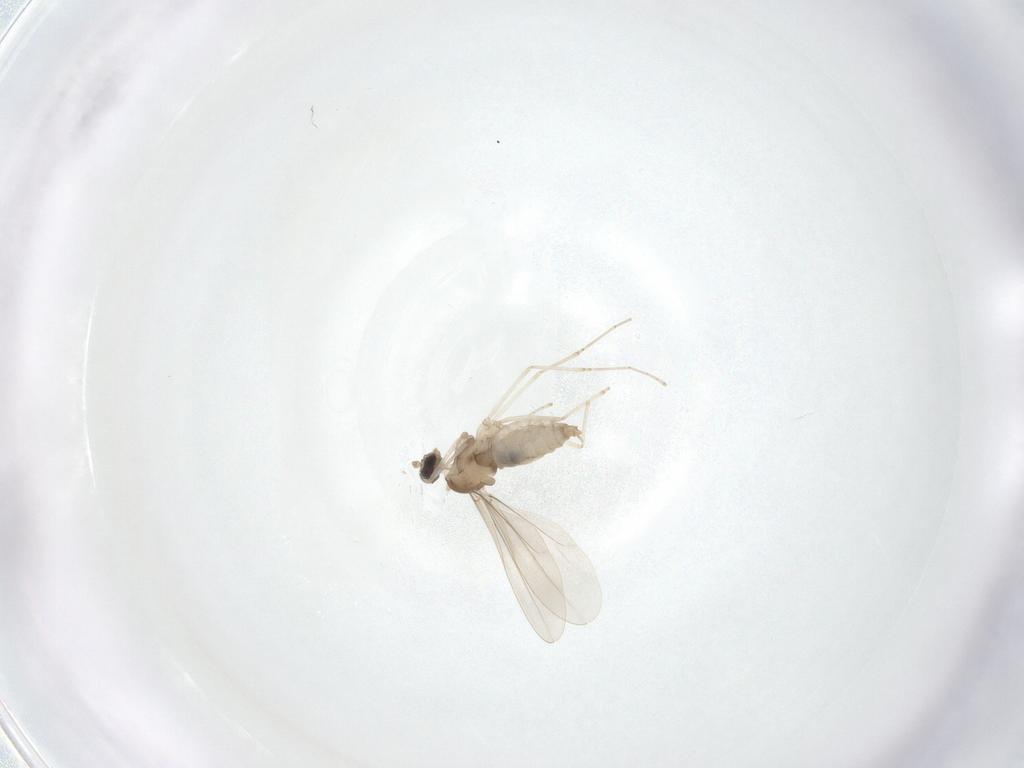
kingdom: Animalia
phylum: Arthropoda
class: Insecta
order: Diptera
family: Cecidomyiidae
